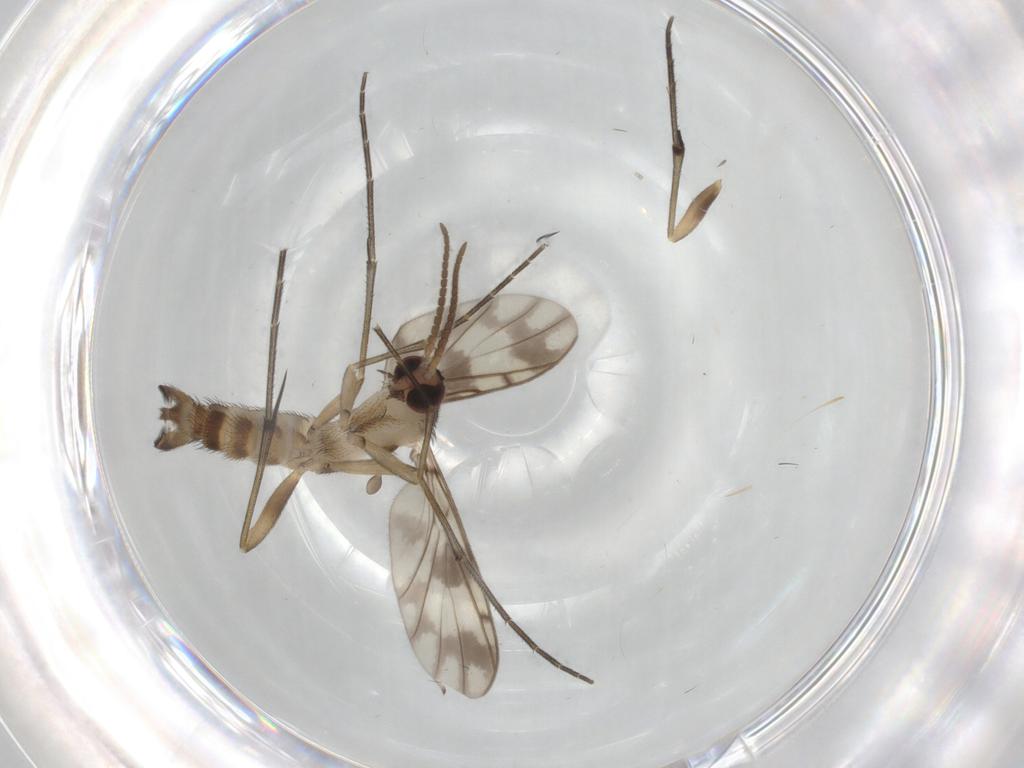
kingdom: Animalia
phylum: Arthropoda
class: Insecta
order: Diptera
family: Keroplatidae
